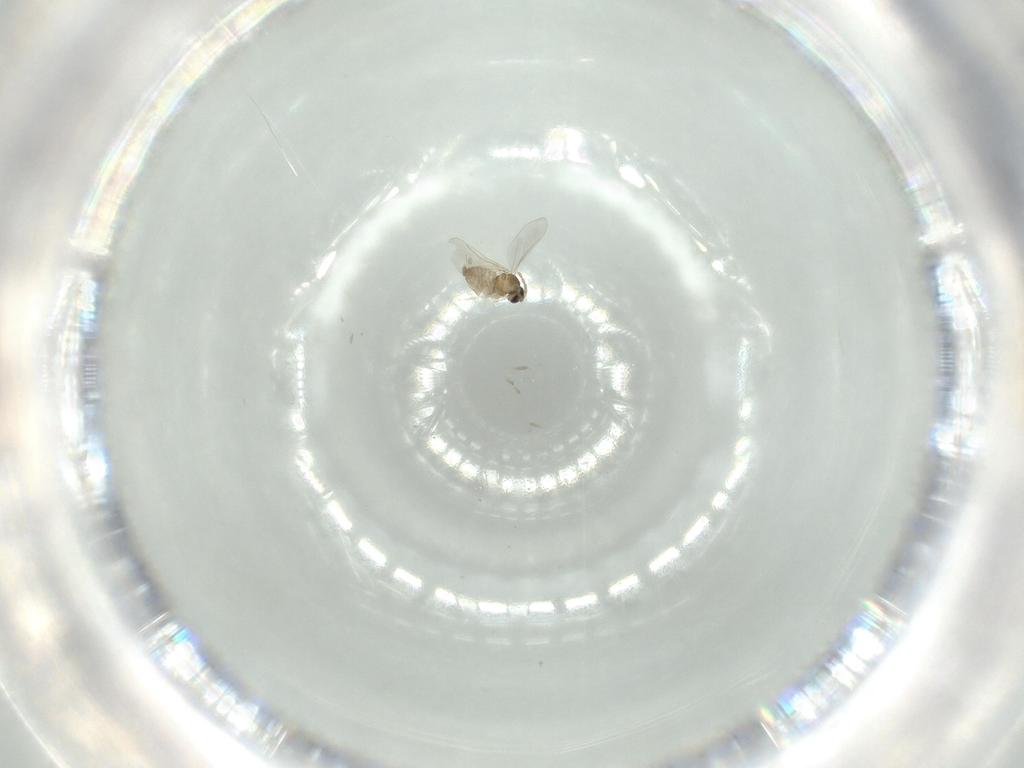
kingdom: Animalia
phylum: Arthropoda
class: Insecta
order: Diptera
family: Cecidomyiidae
